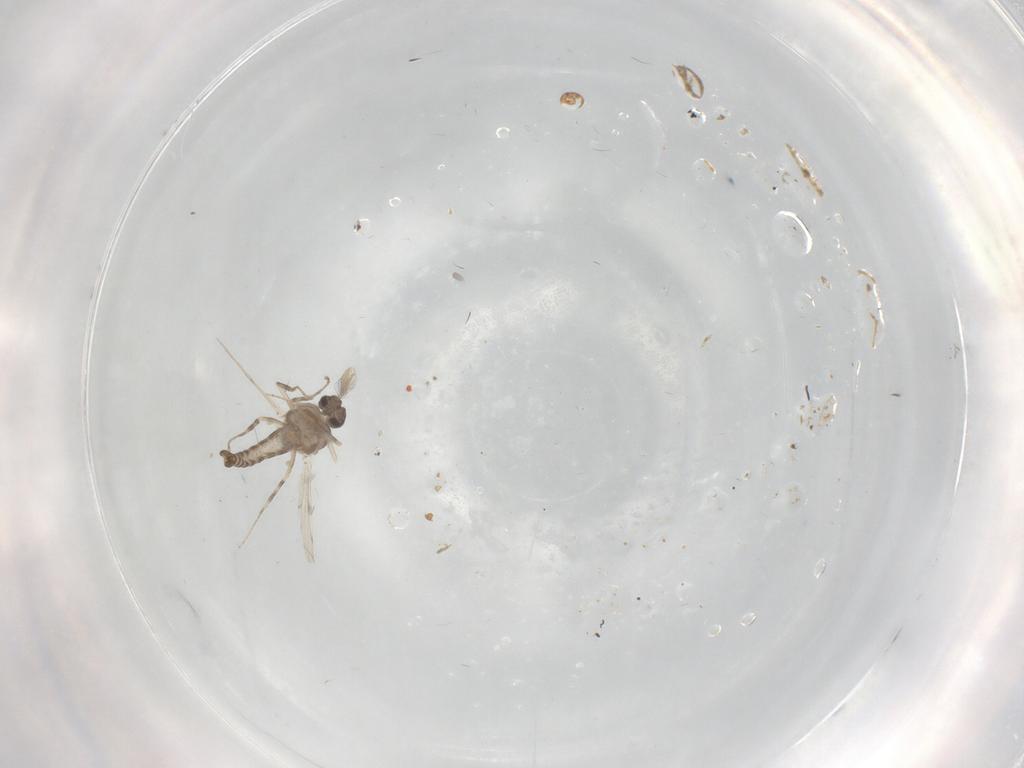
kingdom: Animalia
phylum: Arthropoda
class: Insecta
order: Diptera
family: Ceratopogonidae
